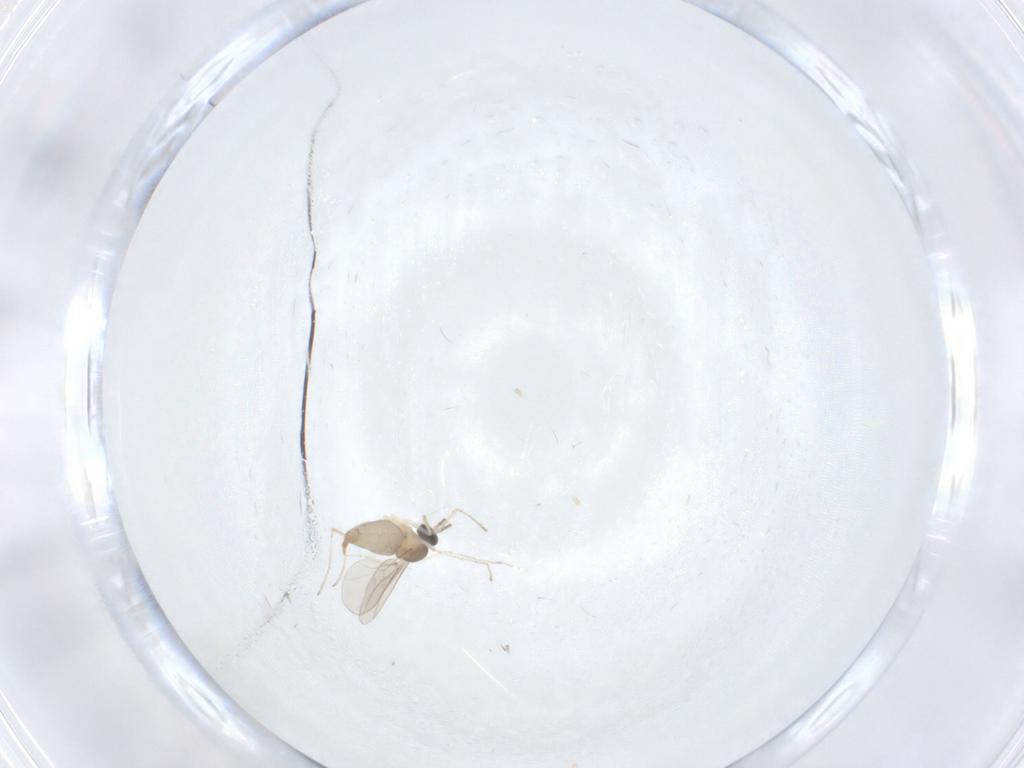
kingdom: Animalia
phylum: Arthropoda
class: Insecta
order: Diptera
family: Cecidomyiidae
